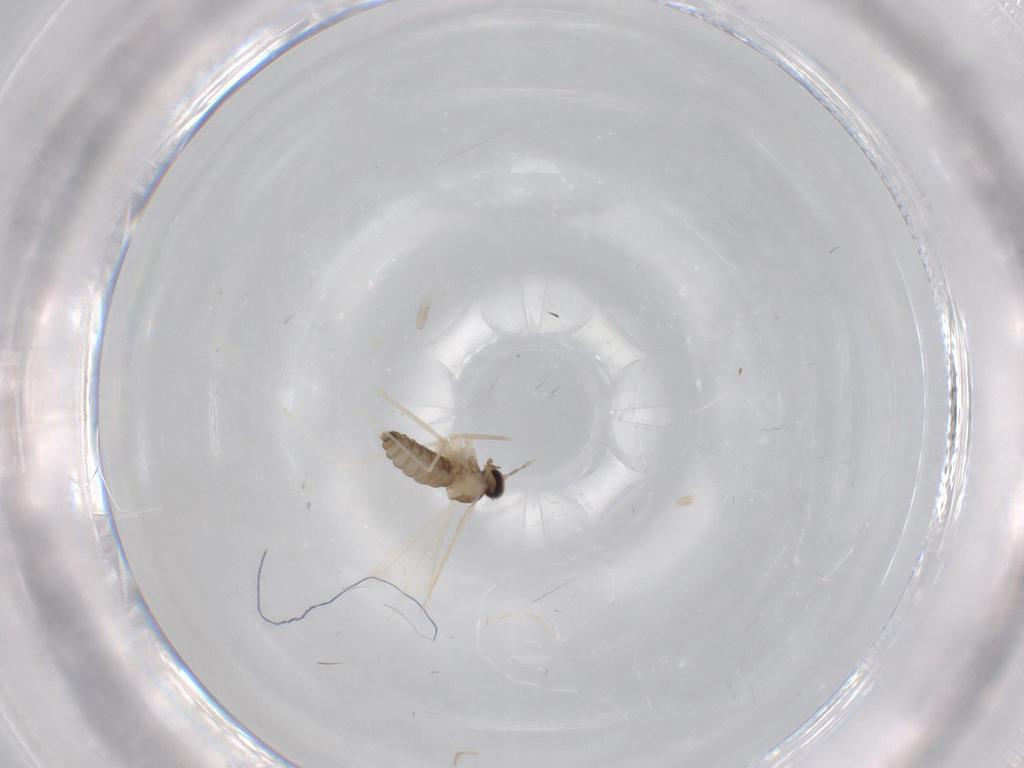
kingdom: Animalia
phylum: Arthropoda
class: Insecta
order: Diptera
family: Cecidomyiidae
